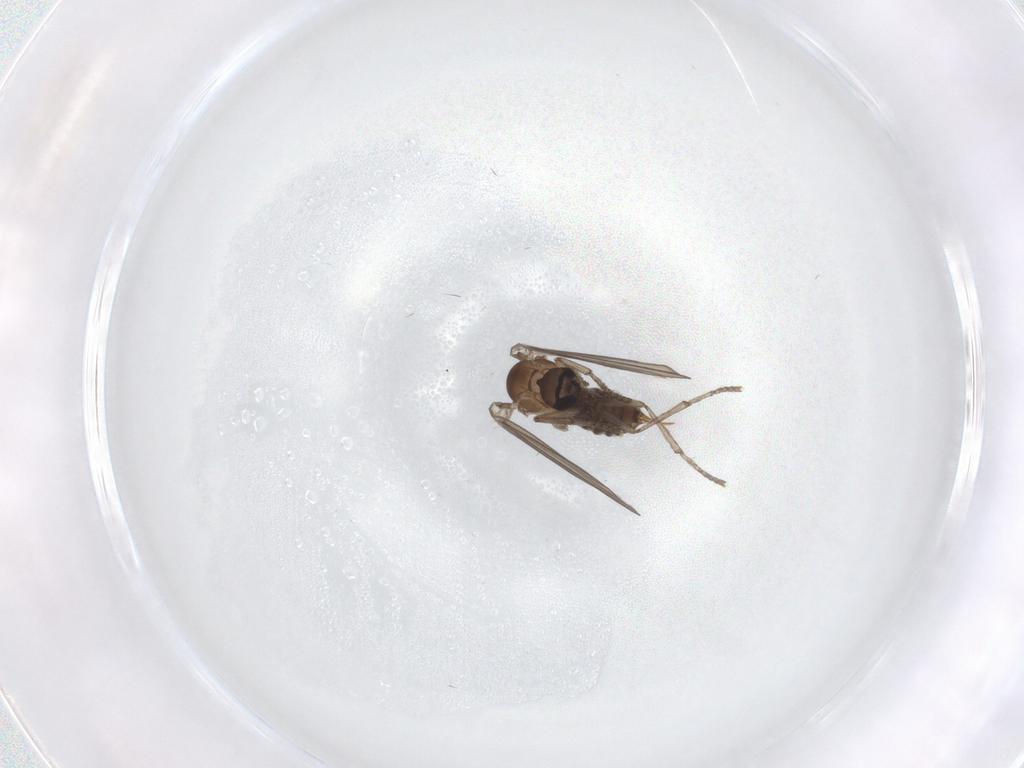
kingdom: Animalia
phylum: Arthropoda
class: Insecta
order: Diptera
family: Psychodidae
